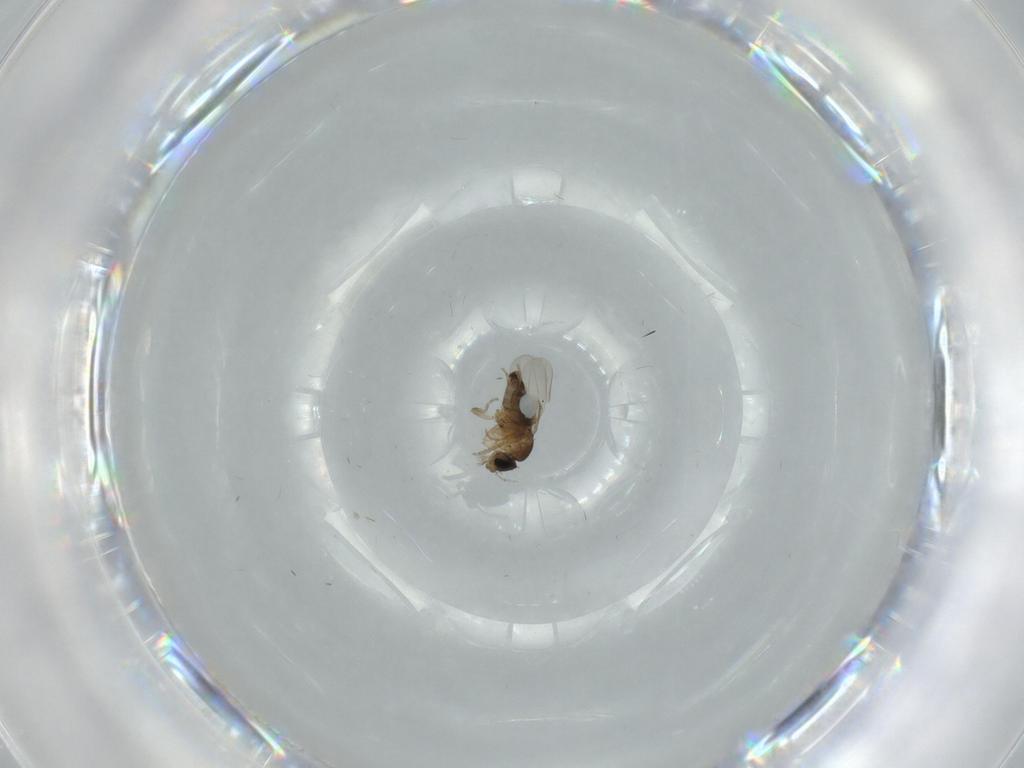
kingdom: Animalia
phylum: Arthropoda
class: Insecta
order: Diptera
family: Phoridae
